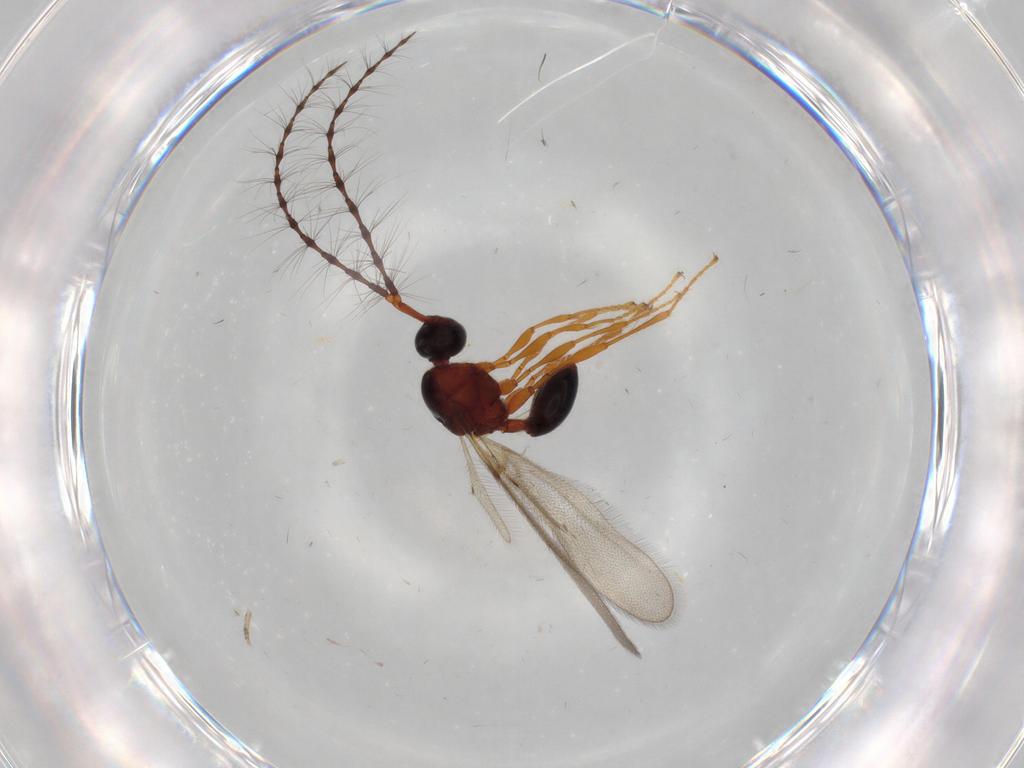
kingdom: Animalia
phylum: Arthropoda
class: Insecta
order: Hymenoptera
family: Diapriidae
